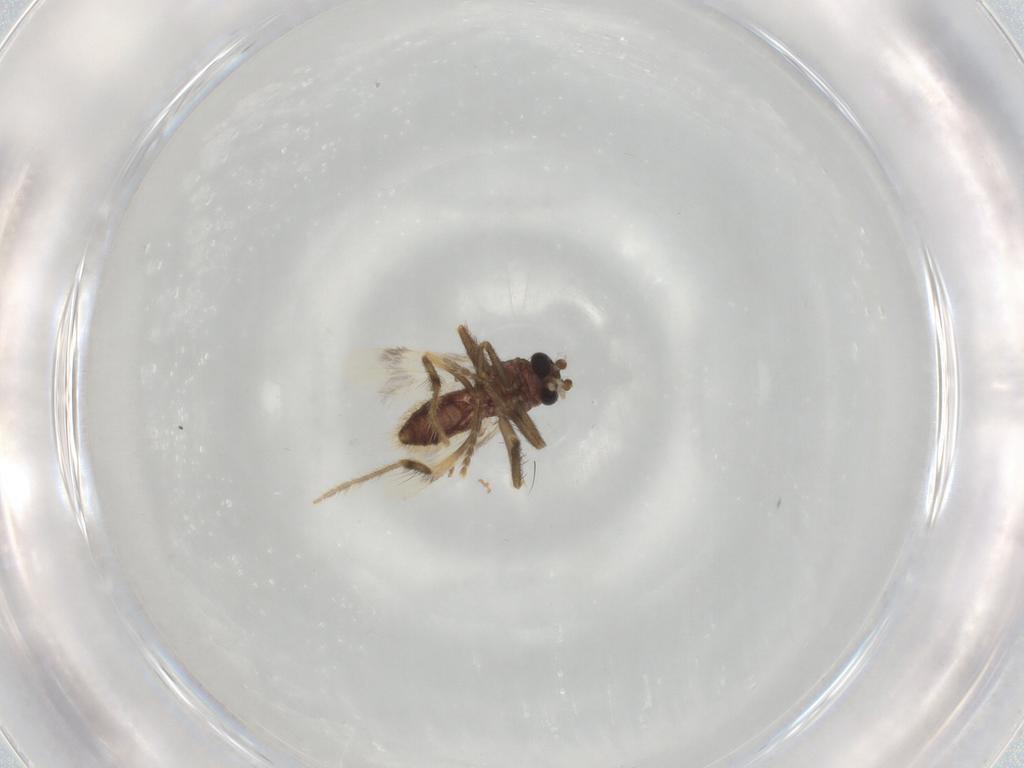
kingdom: Animalia
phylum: Arthropoda
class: Insecta
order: Diptera
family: Corethrellidae
